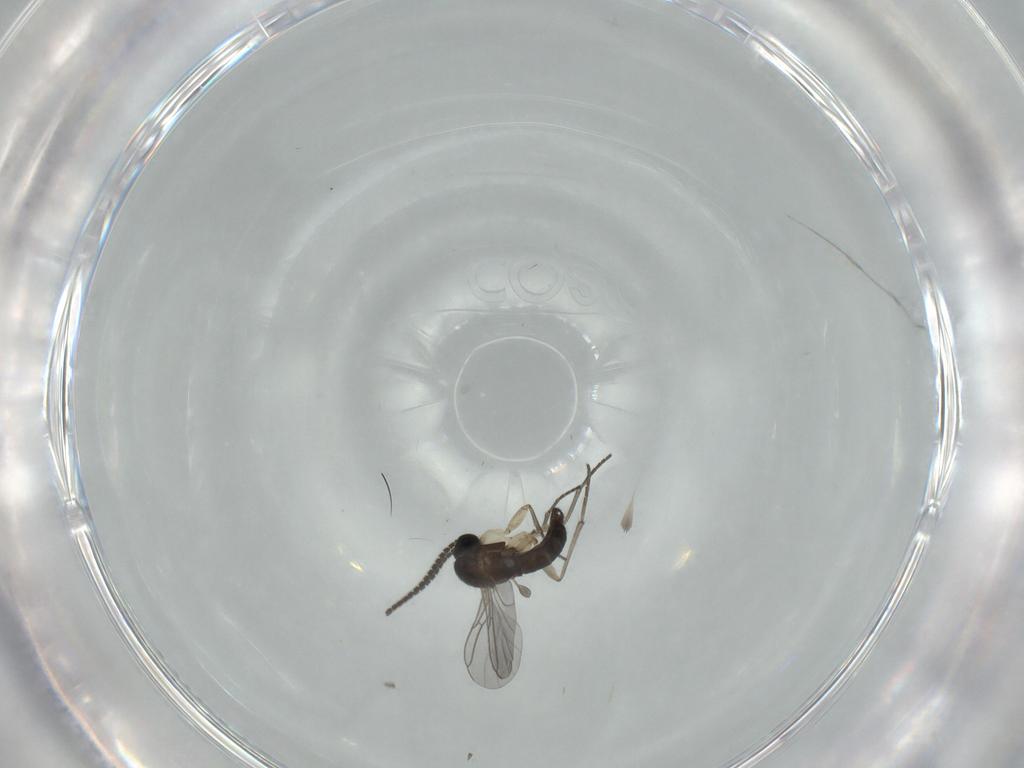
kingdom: Animalia
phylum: Arthropoda
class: Insecta
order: Diptera
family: Sciaridae
